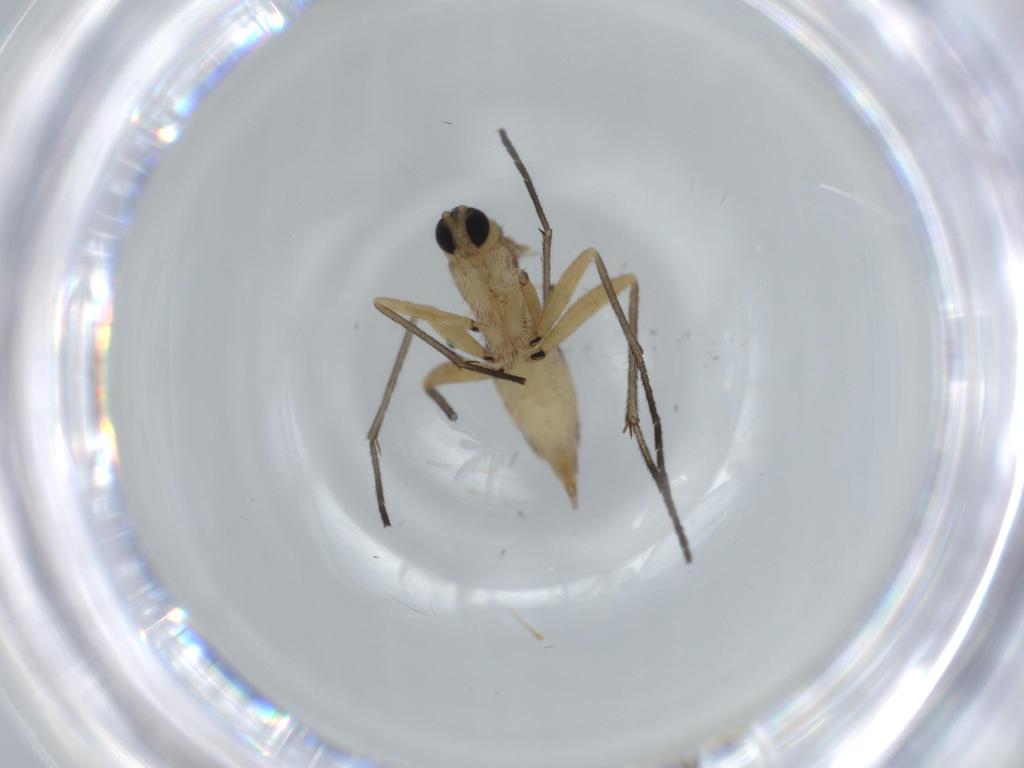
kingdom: Animalia
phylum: Arthropoda
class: Insecta
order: Diptera
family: Sciaridae
